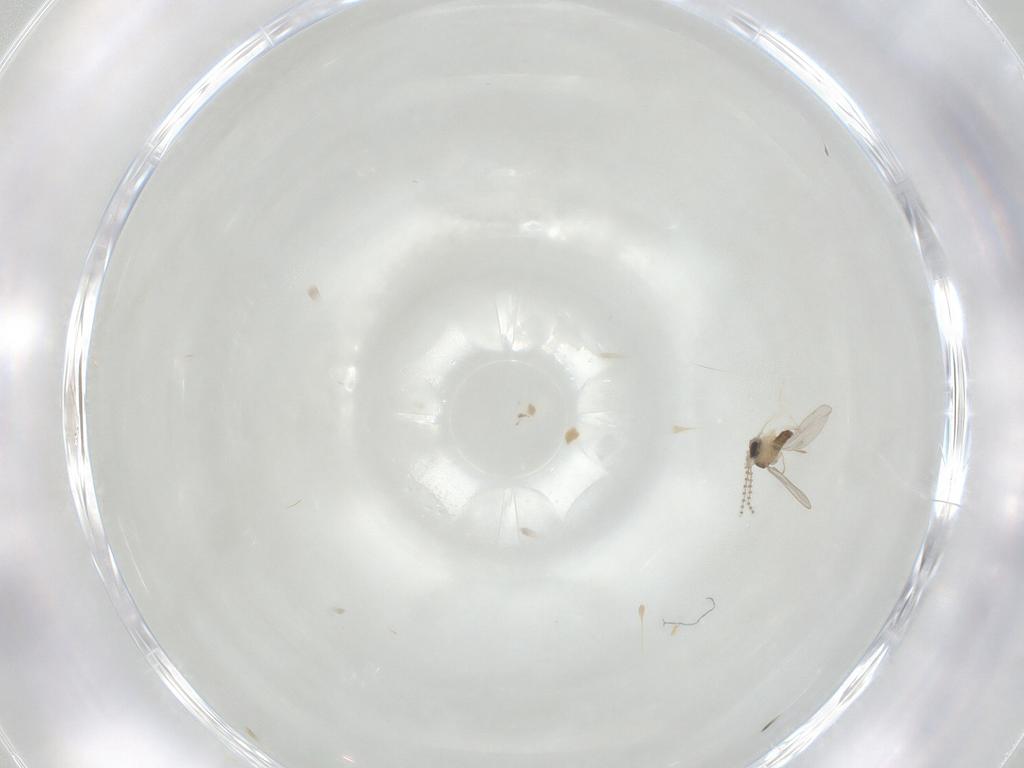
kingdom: Animalia
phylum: Arthropoda
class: Insecta
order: Diptera
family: Cecidomyiidae
